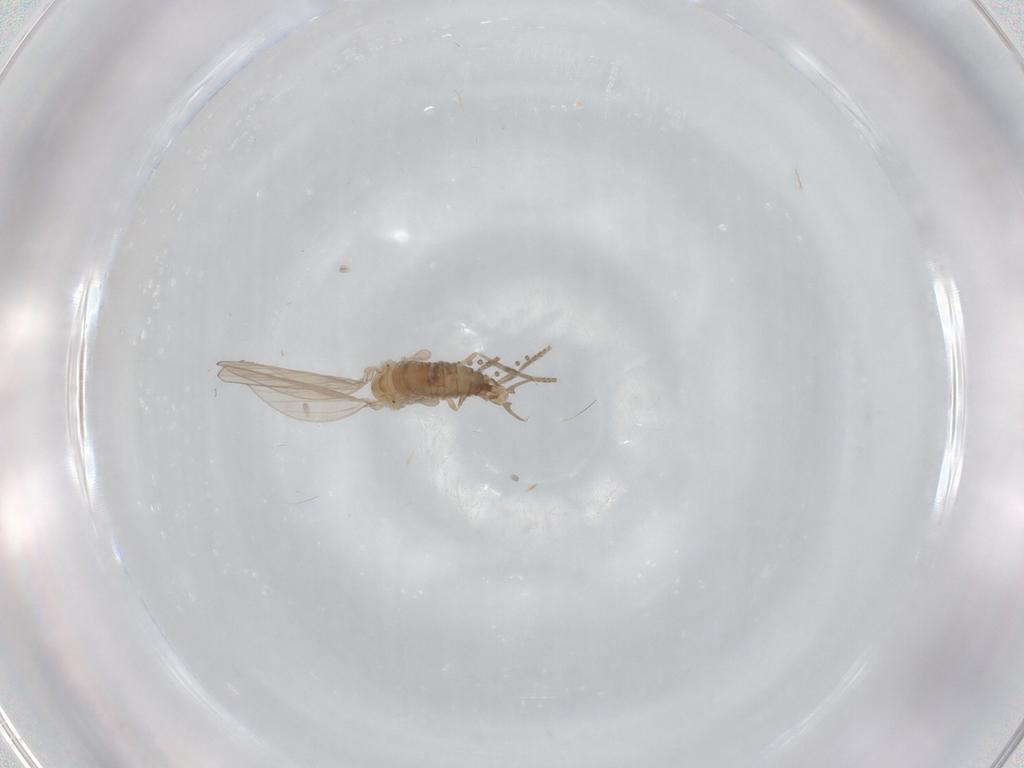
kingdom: Animalia
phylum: Arthropoda
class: Insecta
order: Diptera
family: Psychodidae
